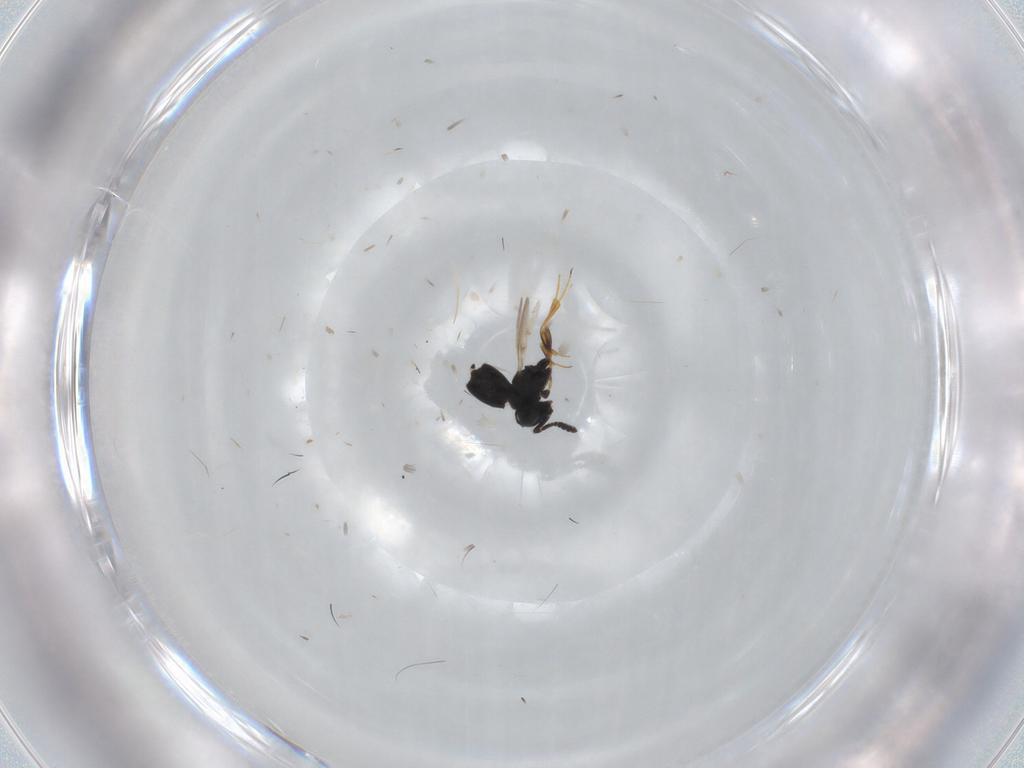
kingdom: Animalia
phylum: Arthropoda
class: Insecta
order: Hymenoptera
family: Scelionidae
